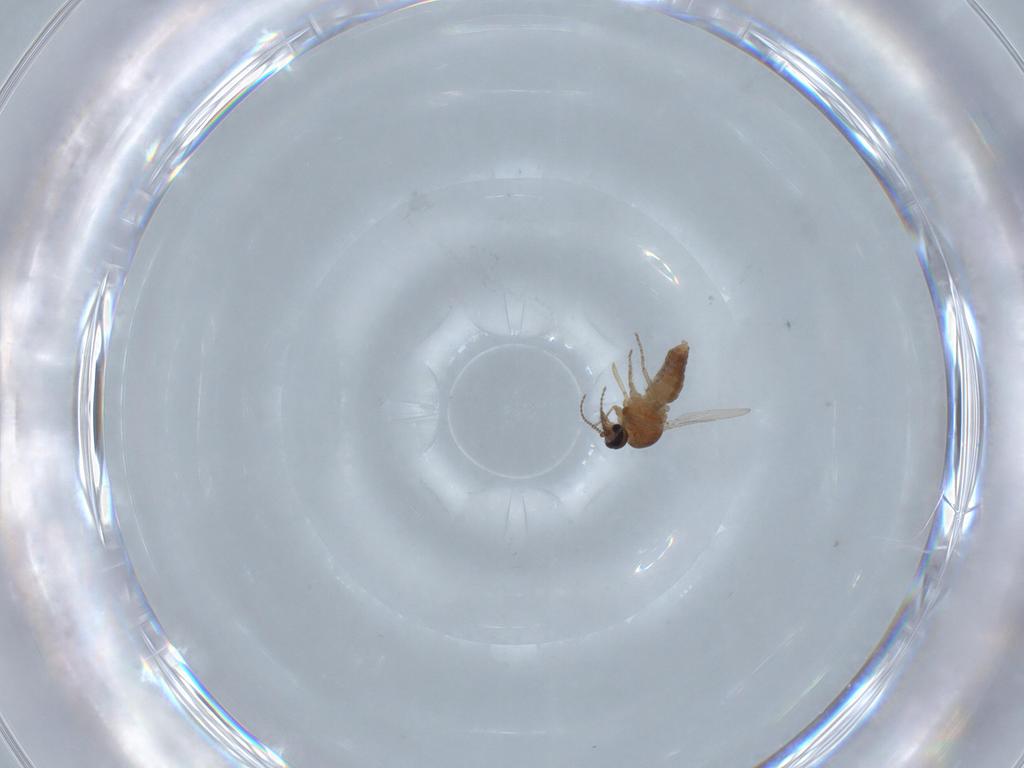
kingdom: Animalia
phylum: Arthropoda
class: Insecta
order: Diptera
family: Ceratopogonidae
